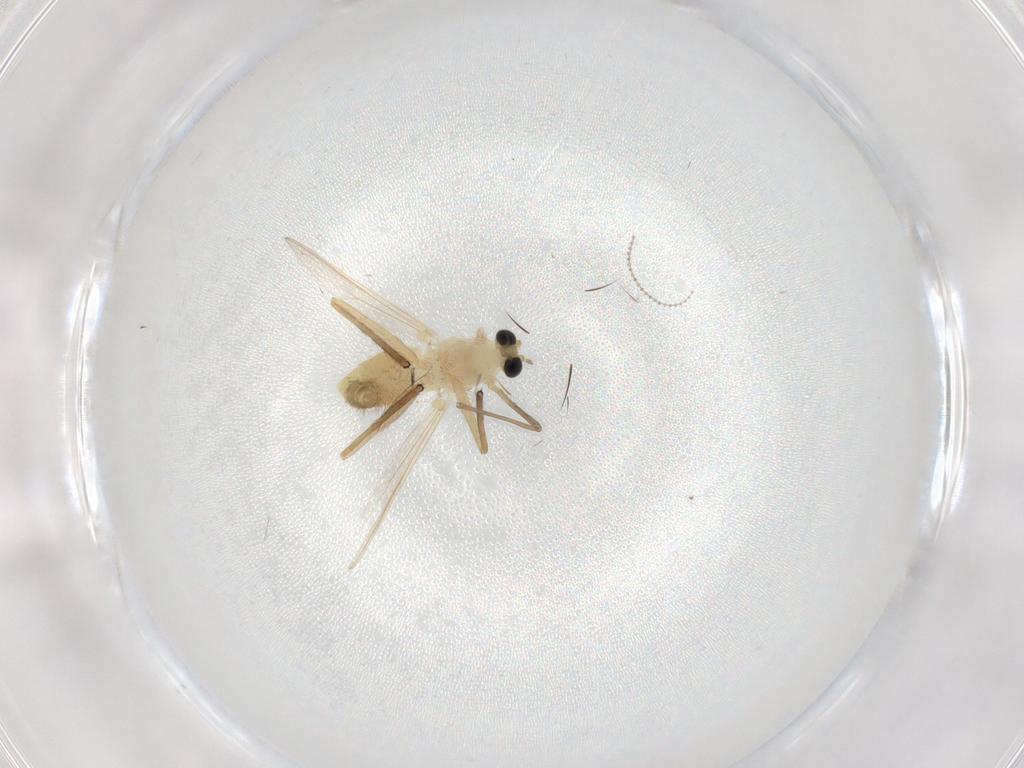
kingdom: Animalia
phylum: Arthropoda
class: Insecta
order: Diptera
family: Chironomidae
